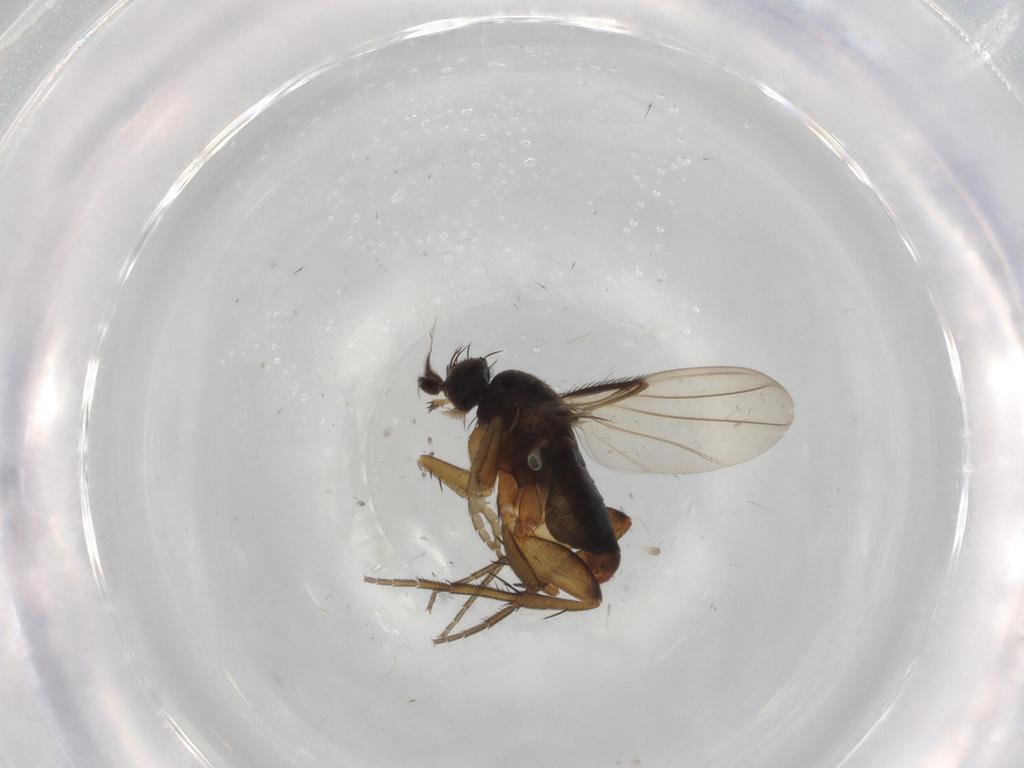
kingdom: Animalia
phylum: Arthropoda
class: Insecta
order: Diptera
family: Phoridae
